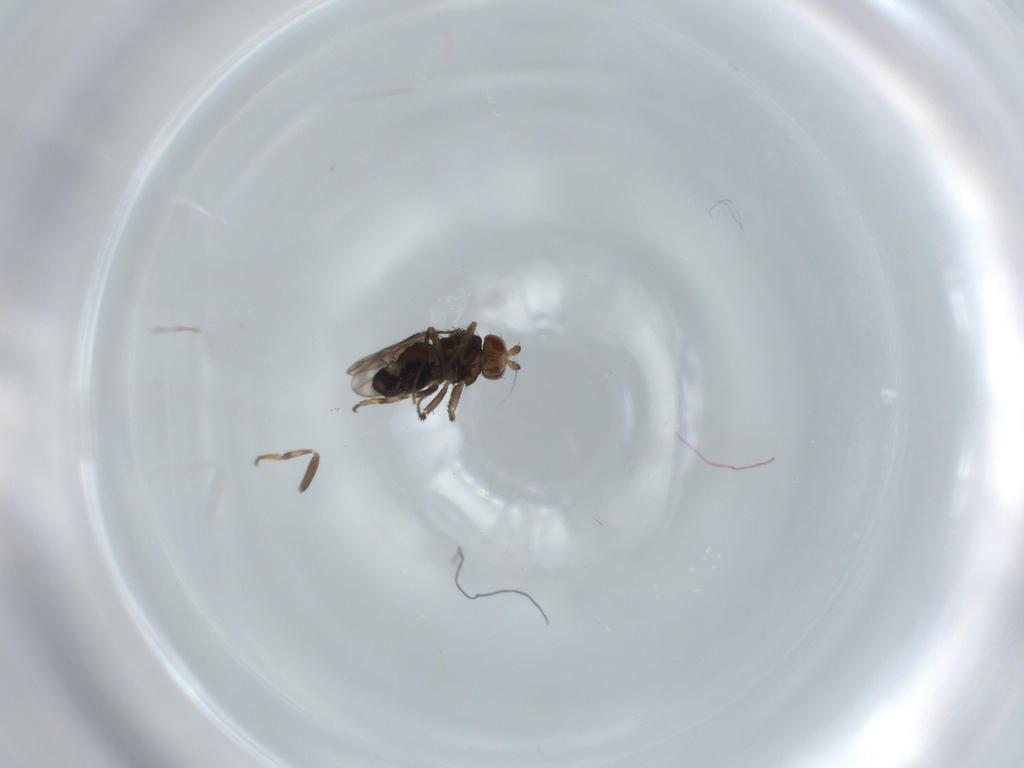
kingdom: Animalia
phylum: Arthropoda
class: Insecta
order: Diptera
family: Sphaeroceridae
